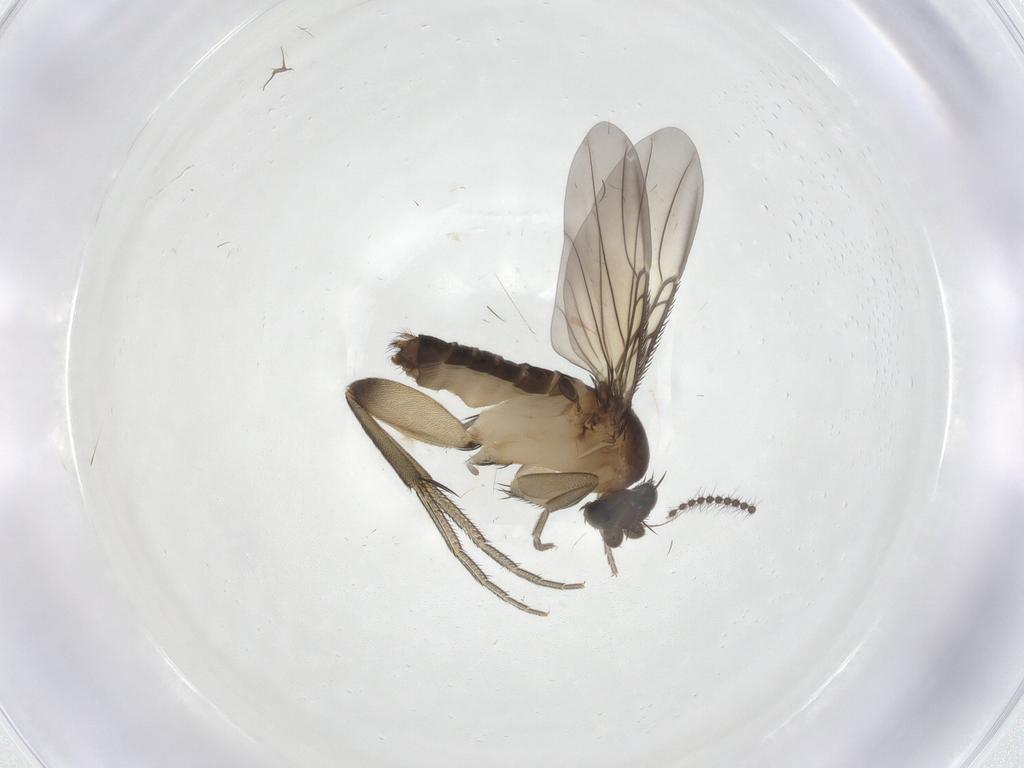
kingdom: Animalia
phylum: Arthropoda
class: Insecta
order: Diptera
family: Phoridae
